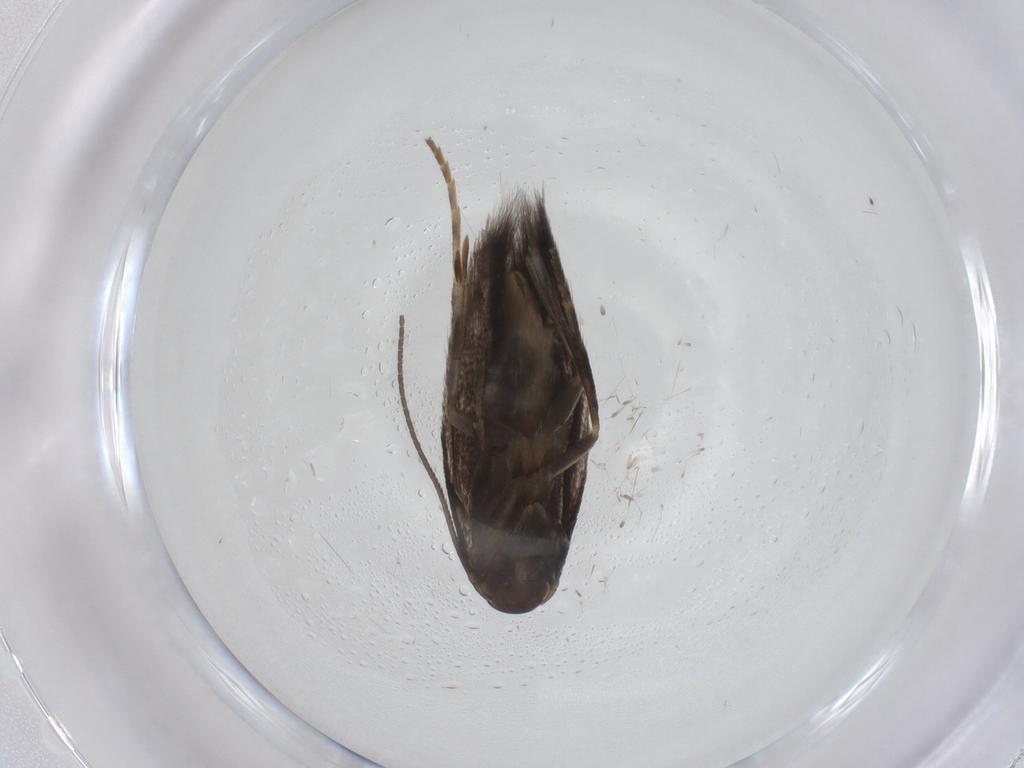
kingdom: Animalia
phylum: Arthropoda
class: Insecta
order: Lepidoptera
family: Elachistidae
